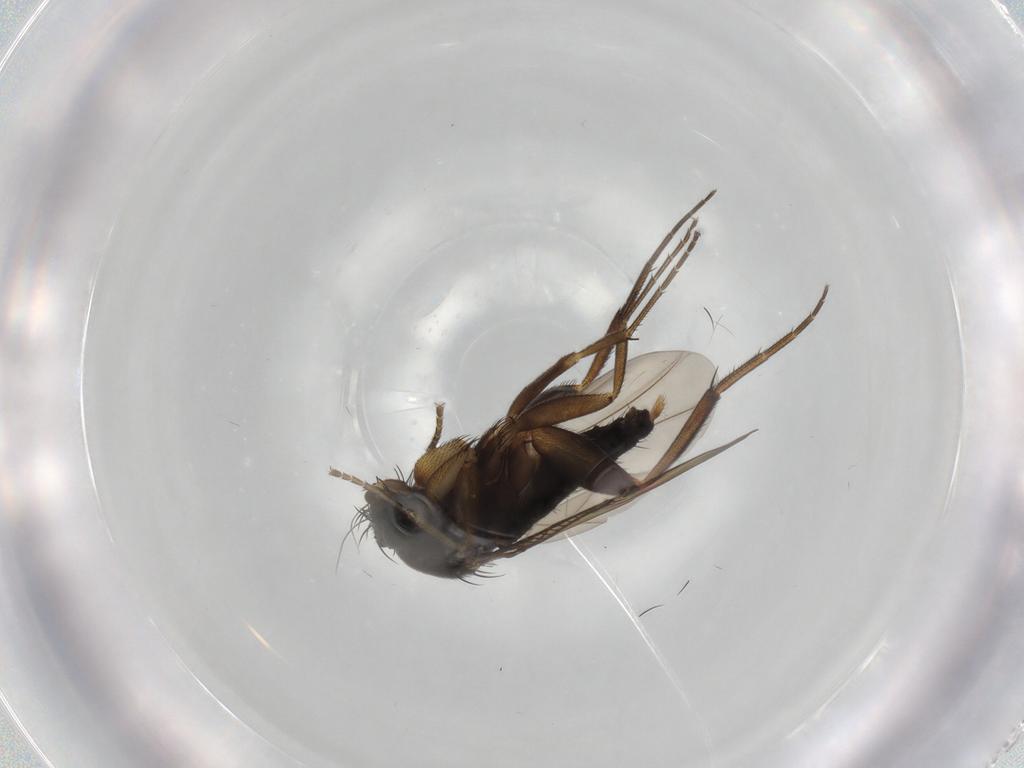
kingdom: Animalia
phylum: Arthropoda
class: Insecta
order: Diptera
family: Phoridae
